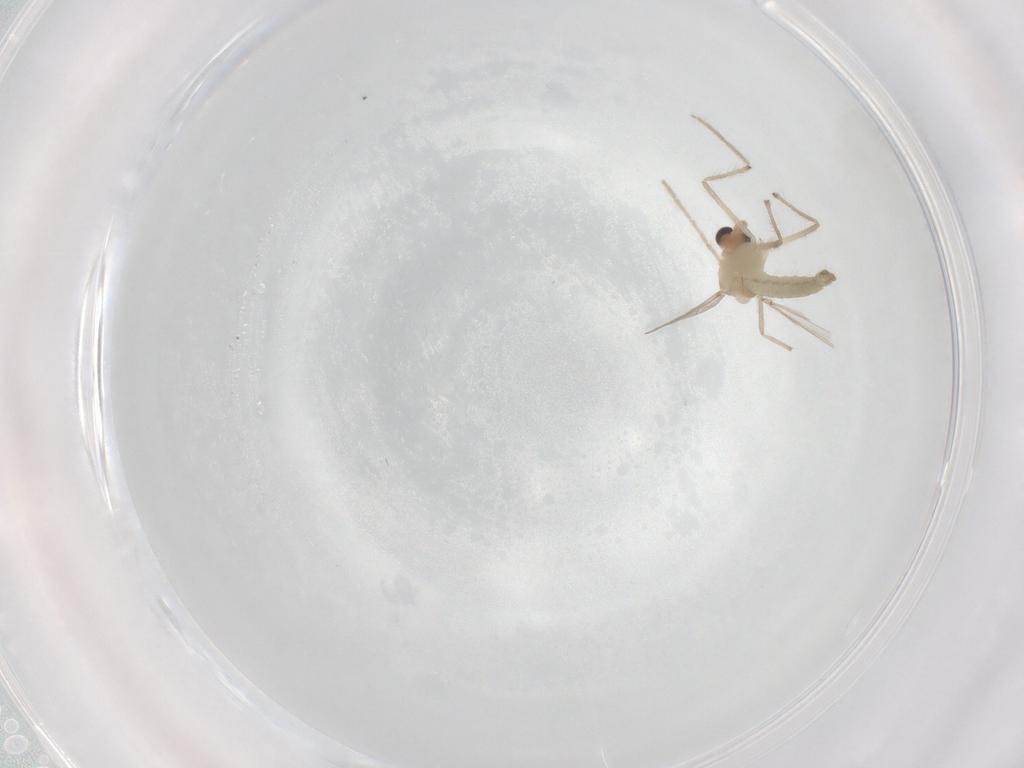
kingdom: Animalia
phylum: Arthropoda
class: Insecta
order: Diptera
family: Chironomidae
